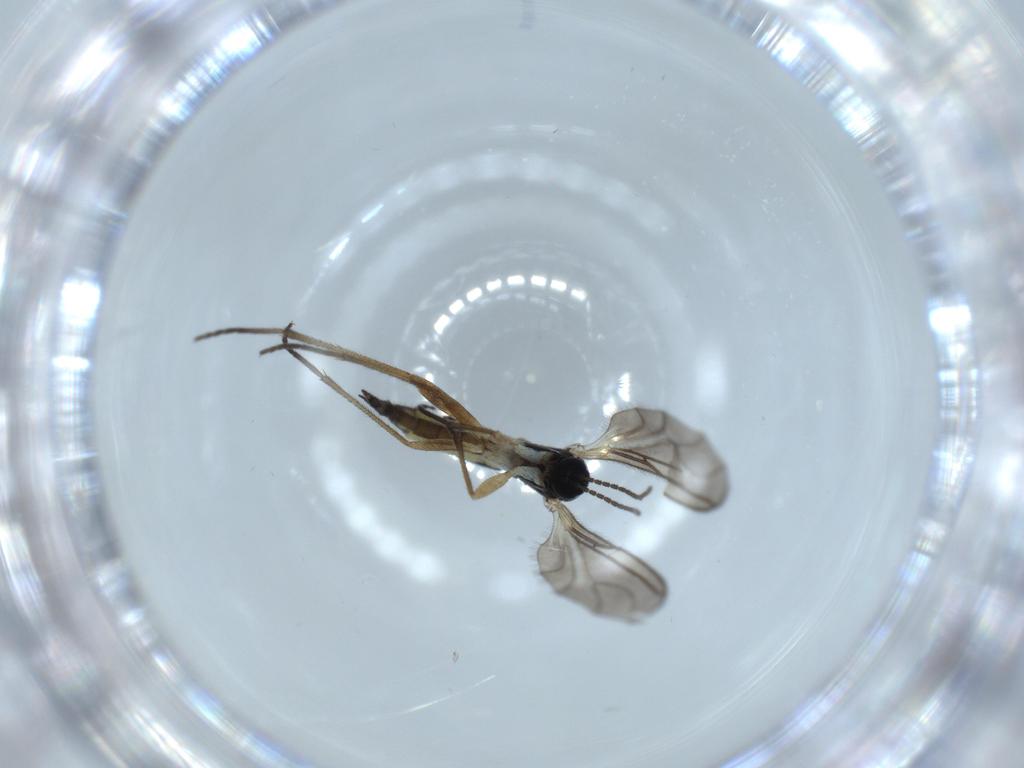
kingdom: Animalia
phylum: Arthropoda
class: Insecta
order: Diptera
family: Sciaridae
